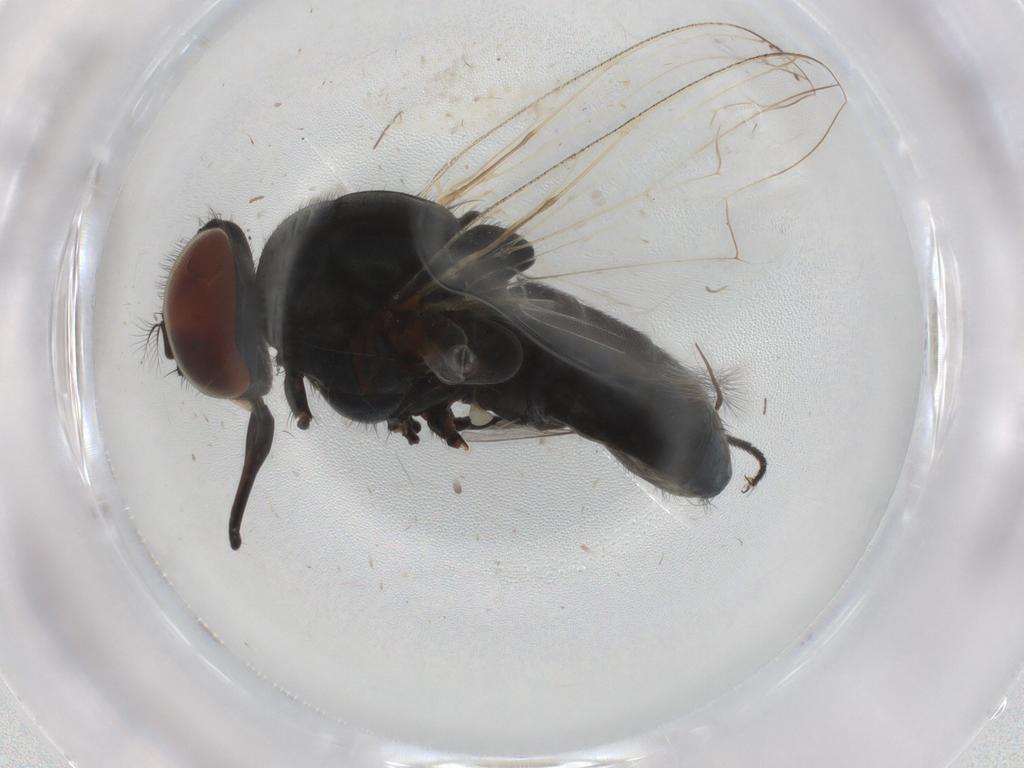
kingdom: Animalia
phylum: Arthropoda
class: Insecta
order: Diptera
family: Muscidae
